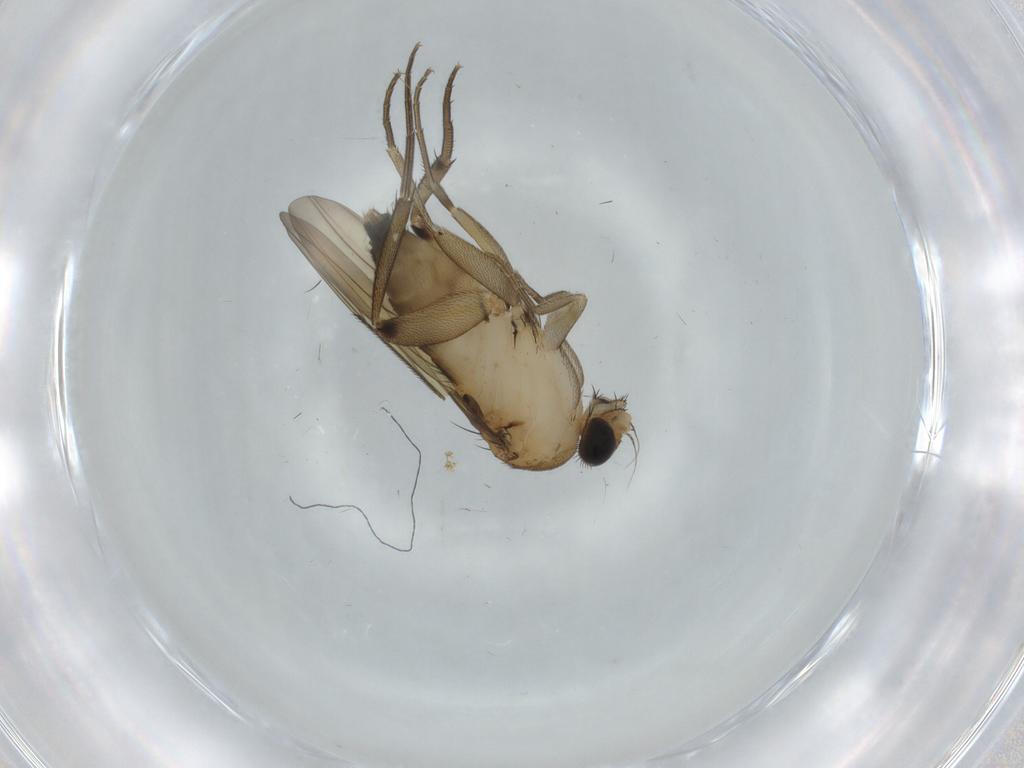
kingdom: Animalia
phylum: Arthropoda
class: Insecta
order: Diptera
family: Phoridae
